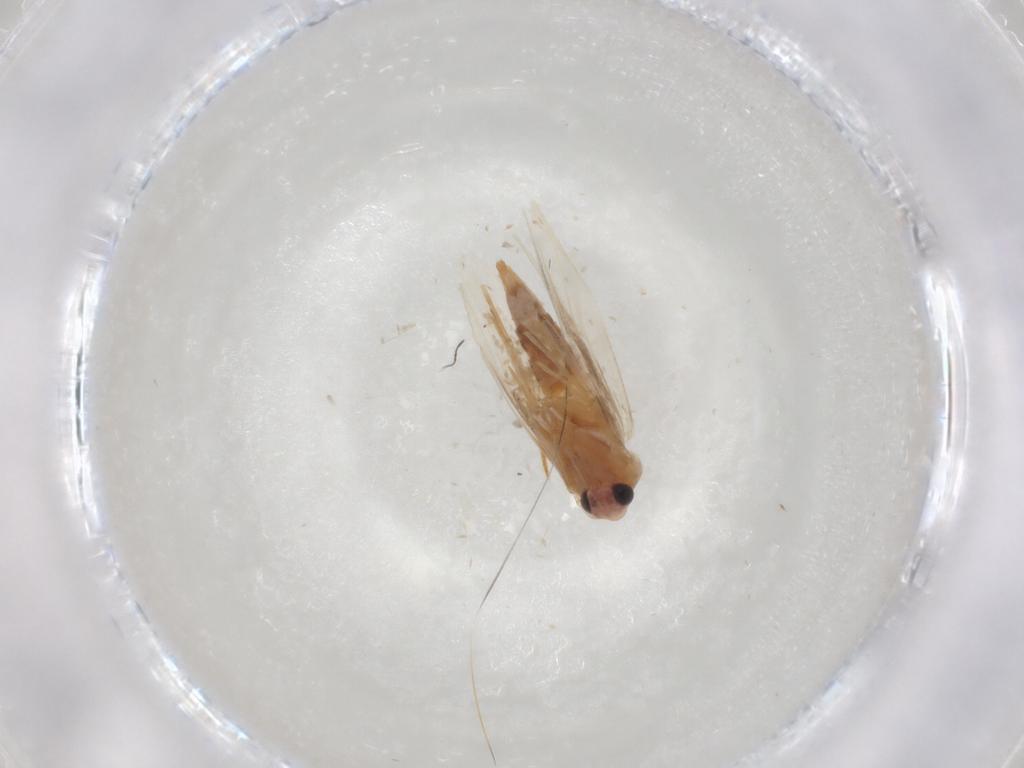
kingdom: Animalia
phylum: Arthropoda
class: Insecta
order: Lepidoptera
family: Bucculatricidae
